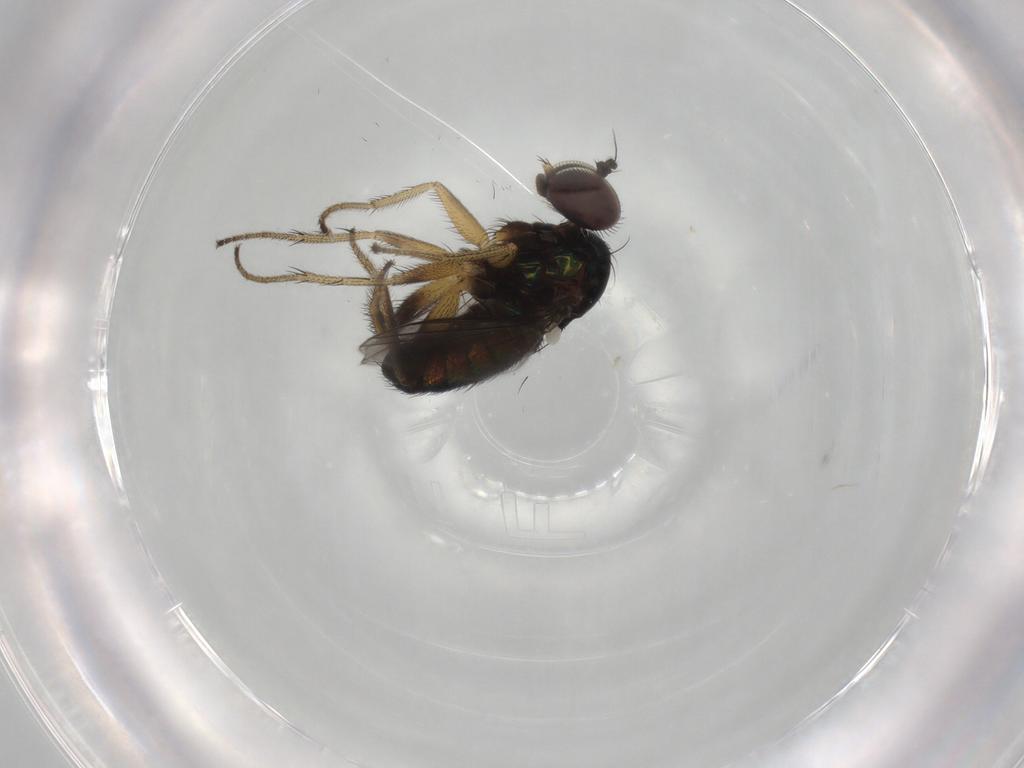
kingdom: Animalia
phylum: Arthropoda
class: Insecta
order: Diptera
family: Dolichopodidae
